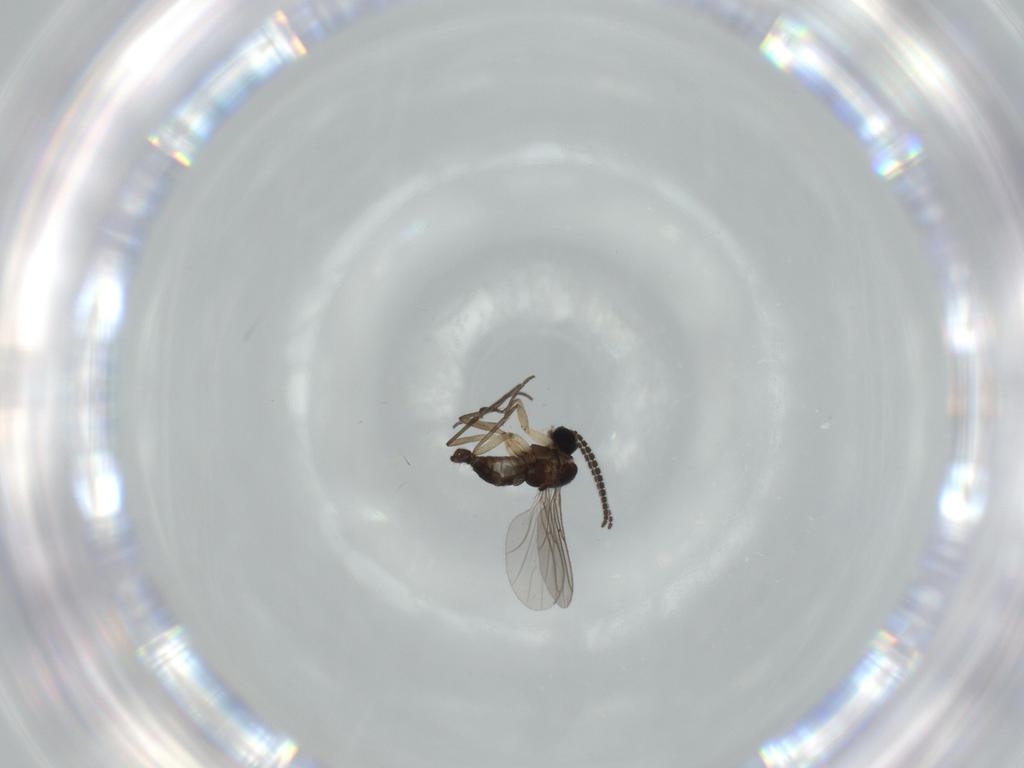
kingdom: Animalia
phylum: Arthropoda
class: Insecta
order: Diptera
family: Sciaridae
